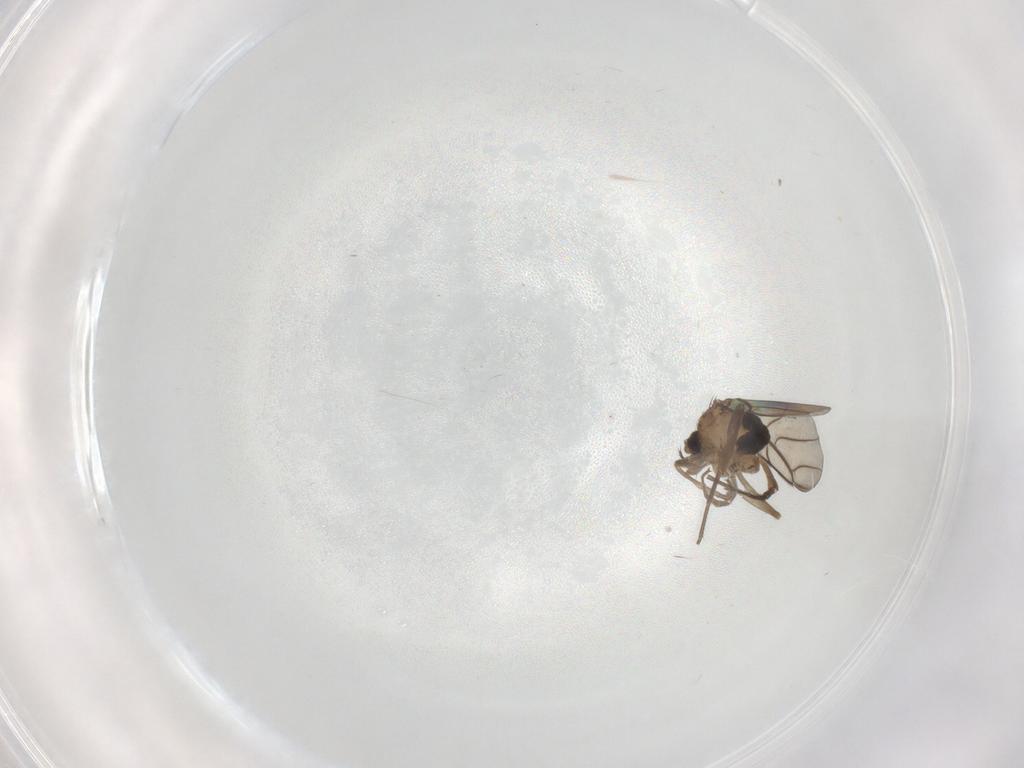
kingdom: Animalia
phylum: Arthropoda
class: Insecta
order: Diptera
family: Phoridae
